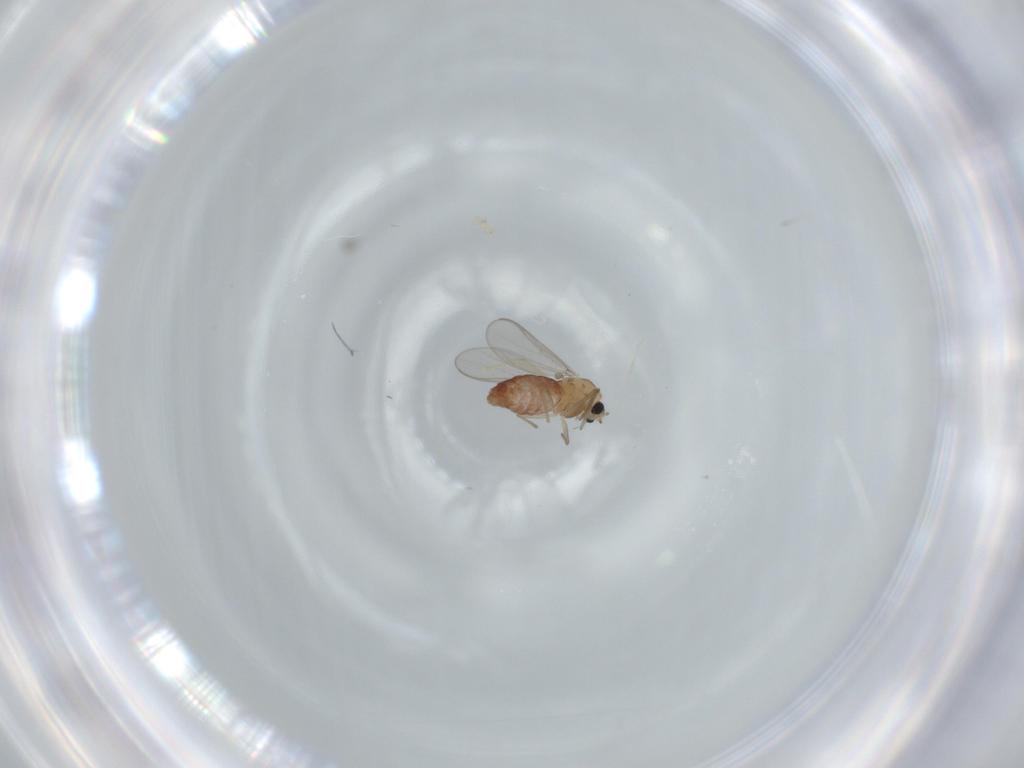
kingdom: Animalia
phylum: Arthropoda
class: Insecta
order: Diptera
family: Chironomidae
